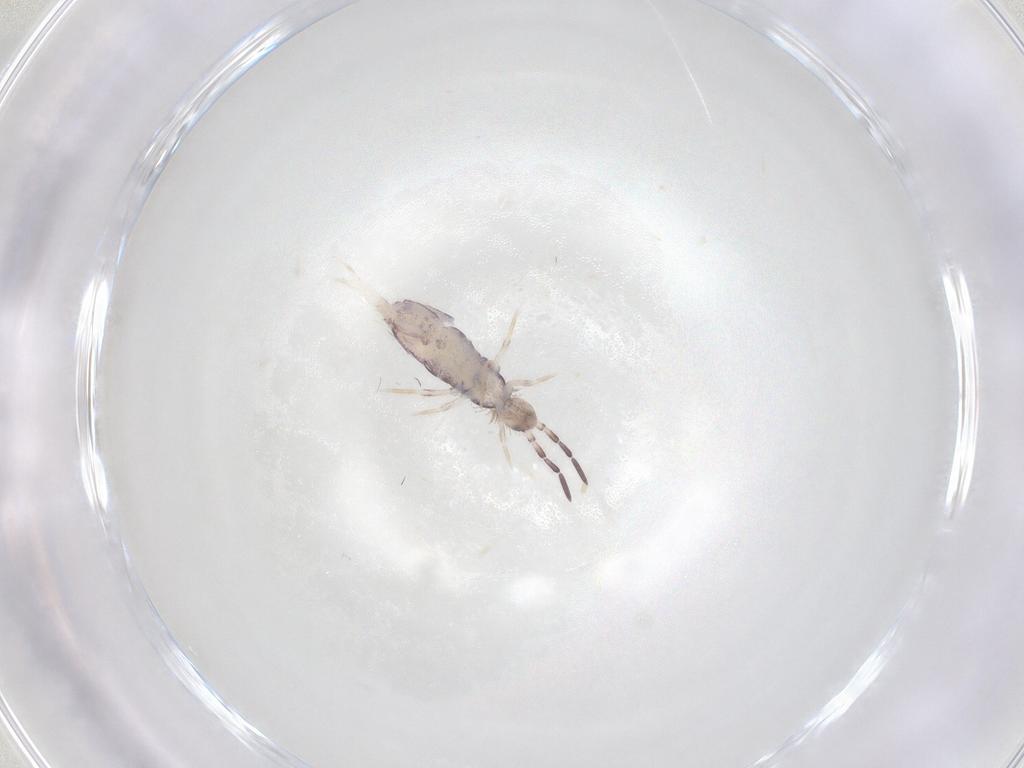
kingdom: Animalia
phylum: Arthropoda
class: Collembola
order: Poduromorpha
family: Hypogastruridae
